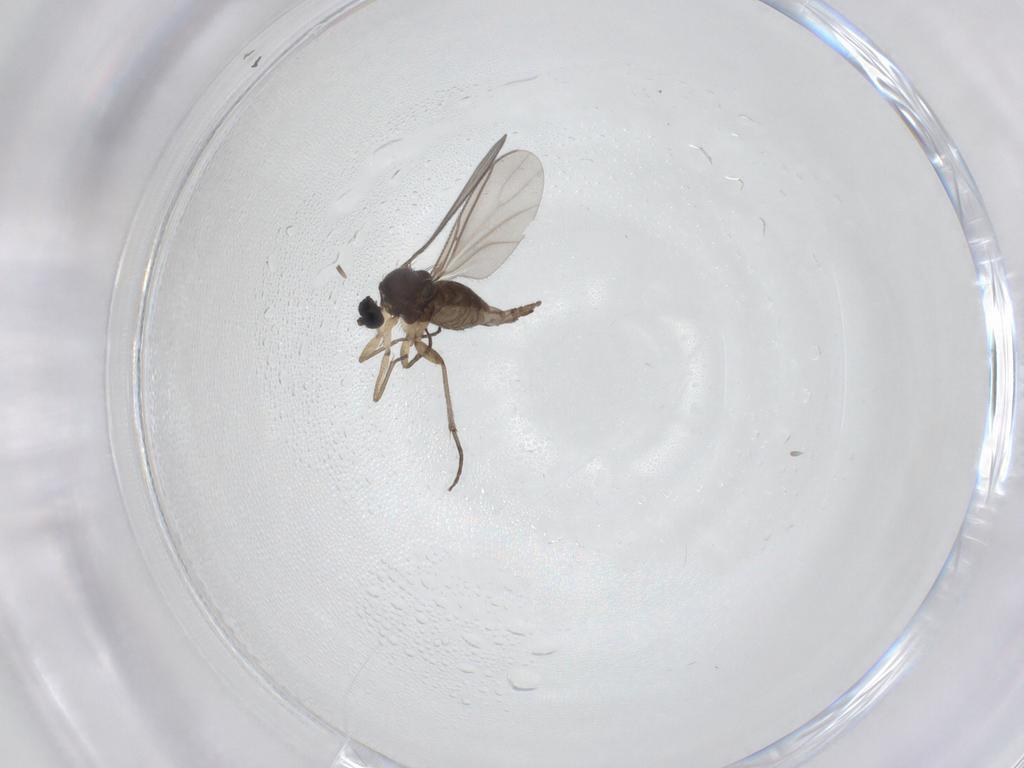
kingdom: Animalia
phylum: Arthropoda
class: Insecta
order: Diptera
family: Sciaridae
